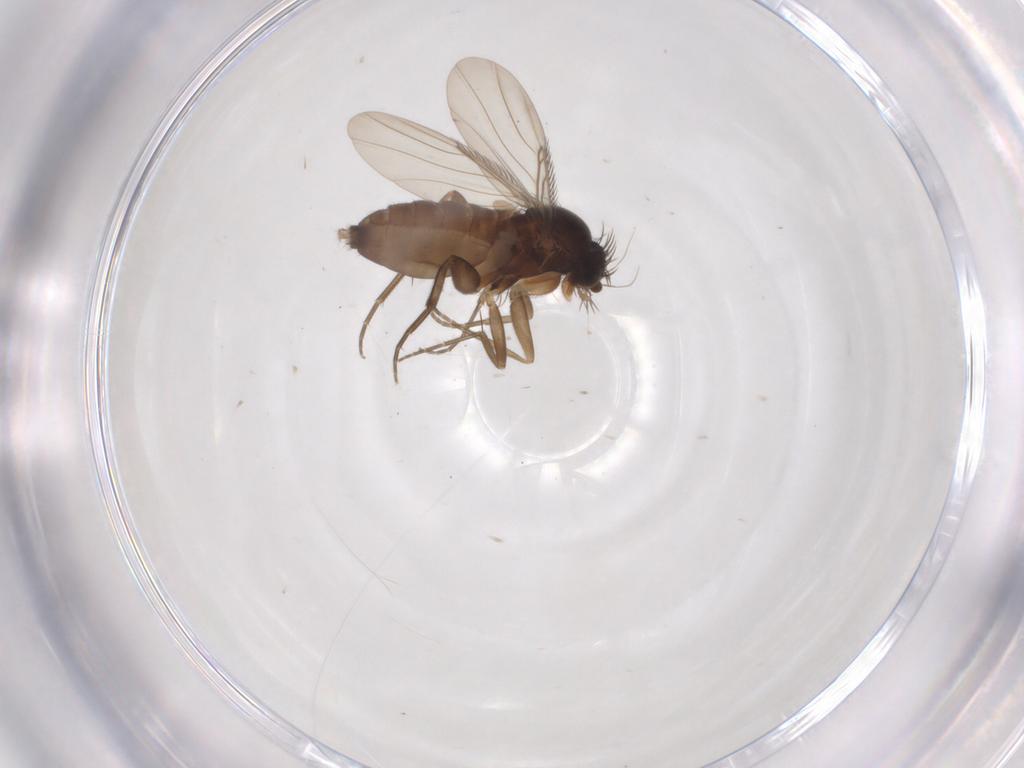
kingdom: Animalia
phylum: Arthropoda
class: Insecta
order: Diptera
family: Phoridae
